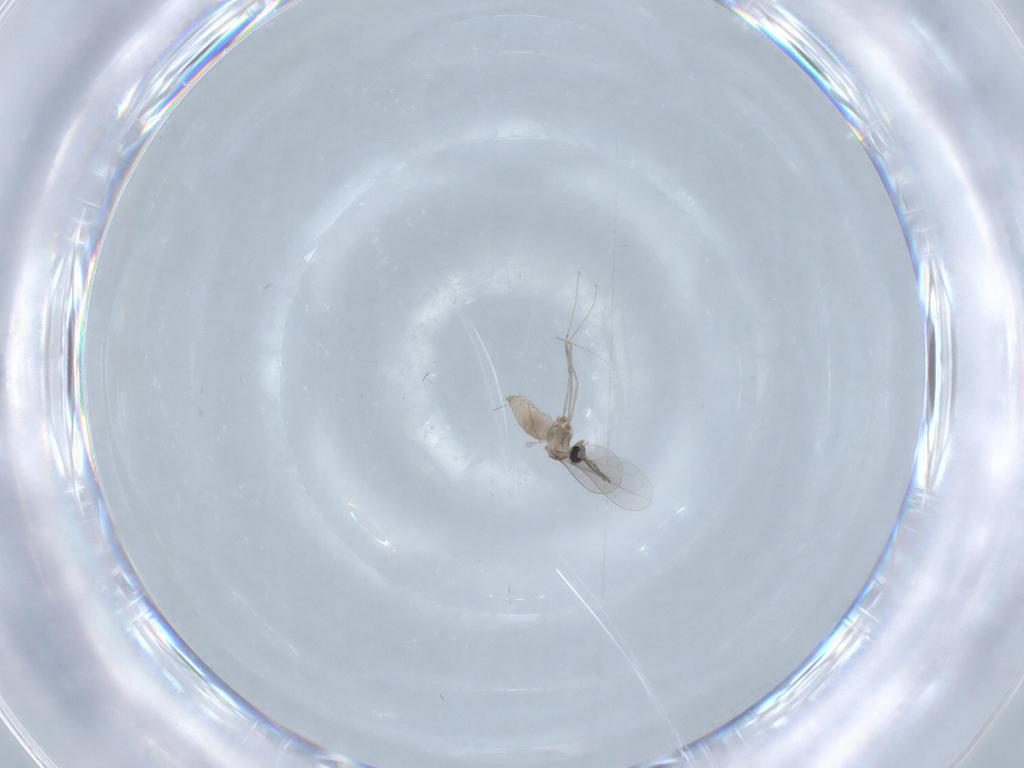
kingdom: Animalia
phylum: Arthropoda
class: Insecta
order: Diptera
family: Cecidomyiidae
